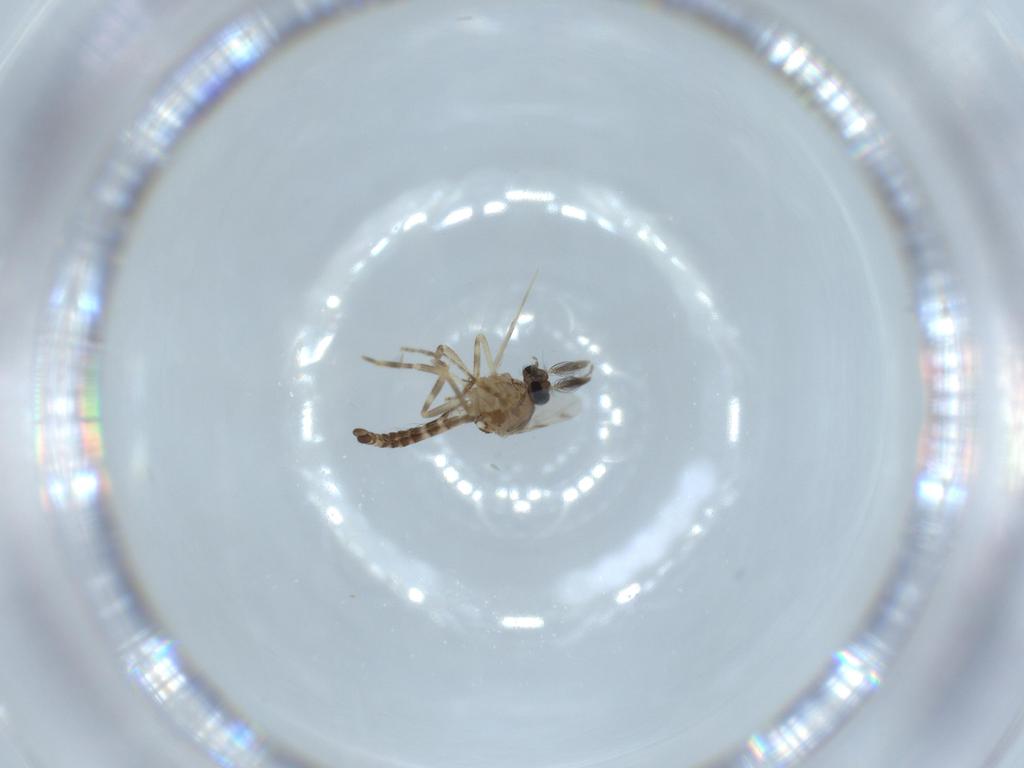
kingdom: Animalia
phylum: Arthropoda
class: Insecta
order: Diptera
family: Ceratopogonidae
